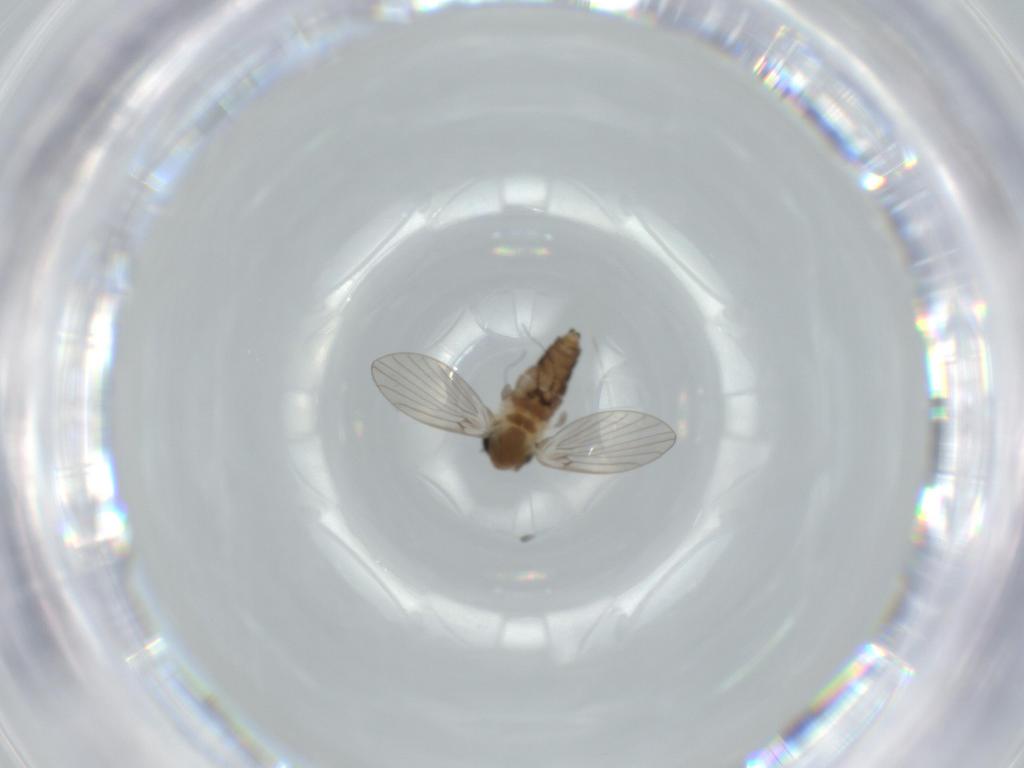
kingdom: Animalia
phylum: Arthropoda
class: Insecta
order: Diptera
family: Psychodidae
